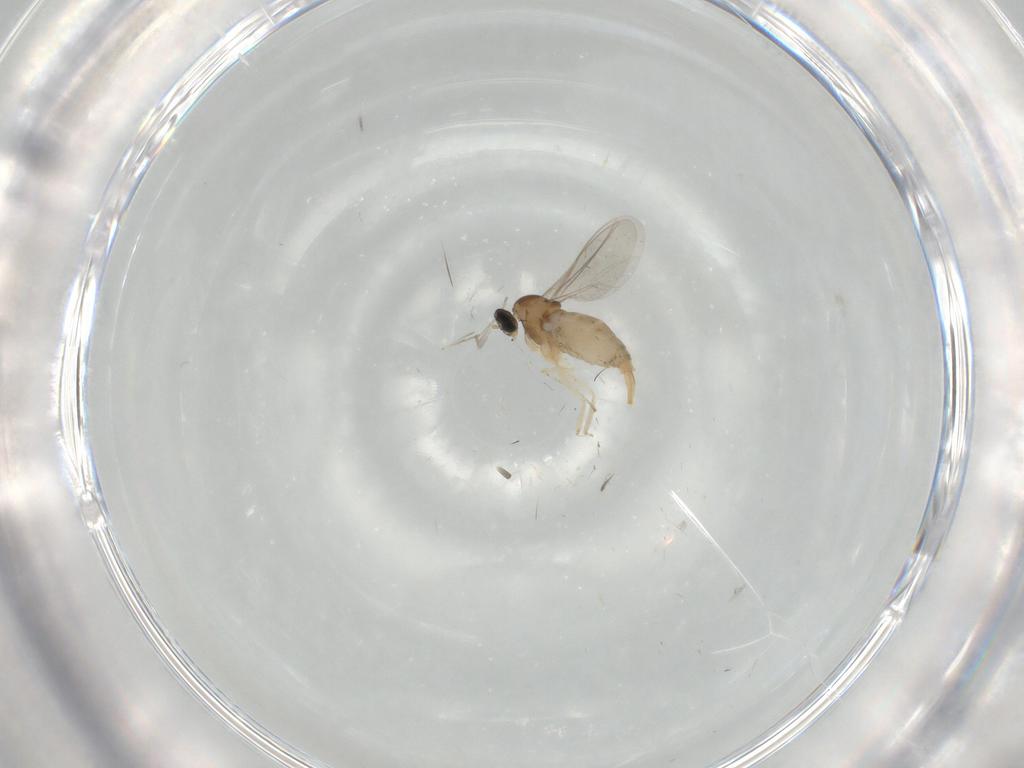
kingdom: Animalia
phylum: Arthropoda
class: Insecta
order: Diptera
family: Cecidomyiidae
